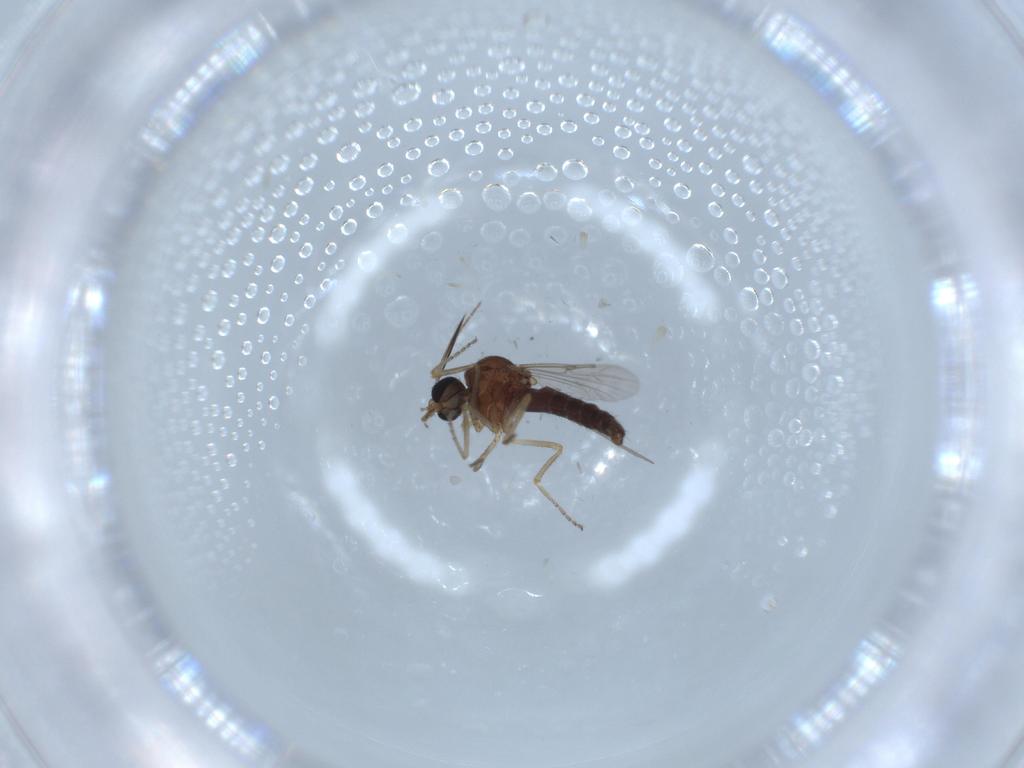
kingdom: Animalia
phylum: Arthropoda
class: Insecta
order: Diptera
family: Ceratopogonidae
